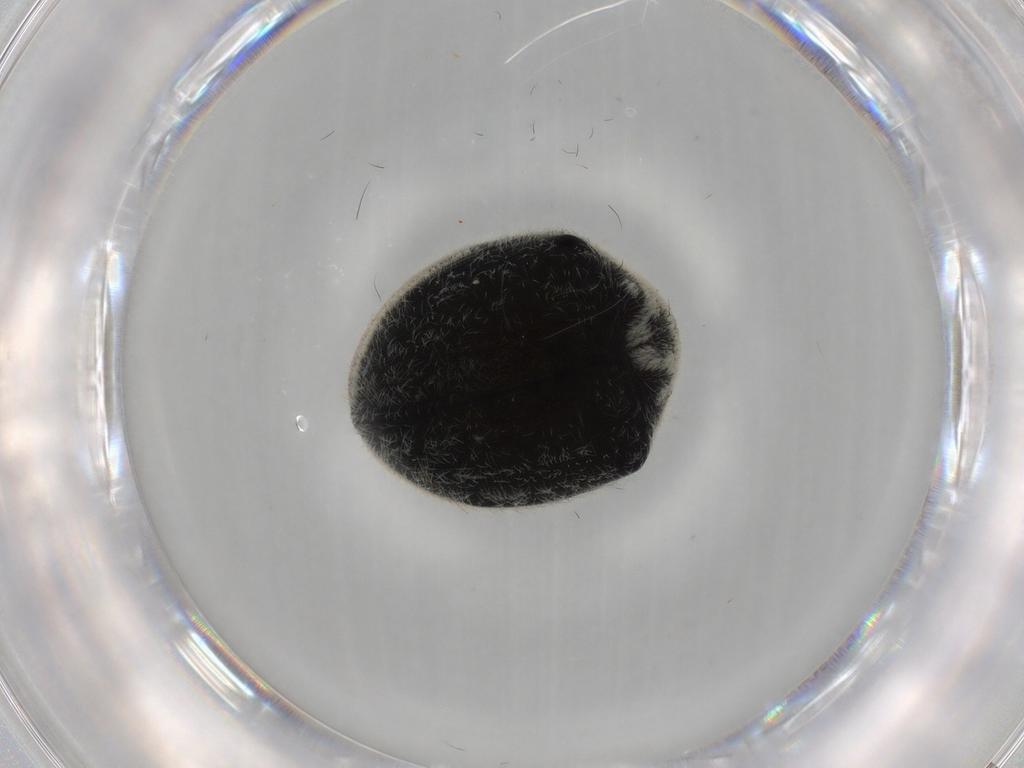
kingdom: Animalia
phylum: Arthropoda
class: Insecta
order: Coleoptera
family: Ptinidae
